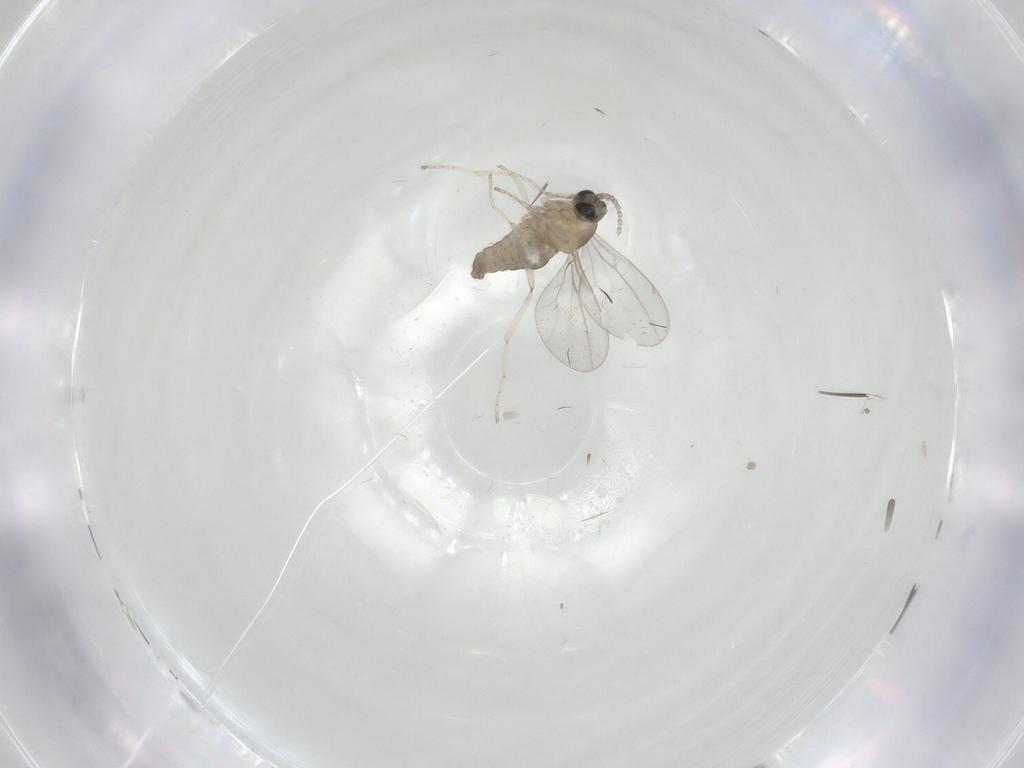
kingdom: Animalia
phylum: Arthropoda
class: Insecta
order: Diptera
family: Cecidomyiidae
